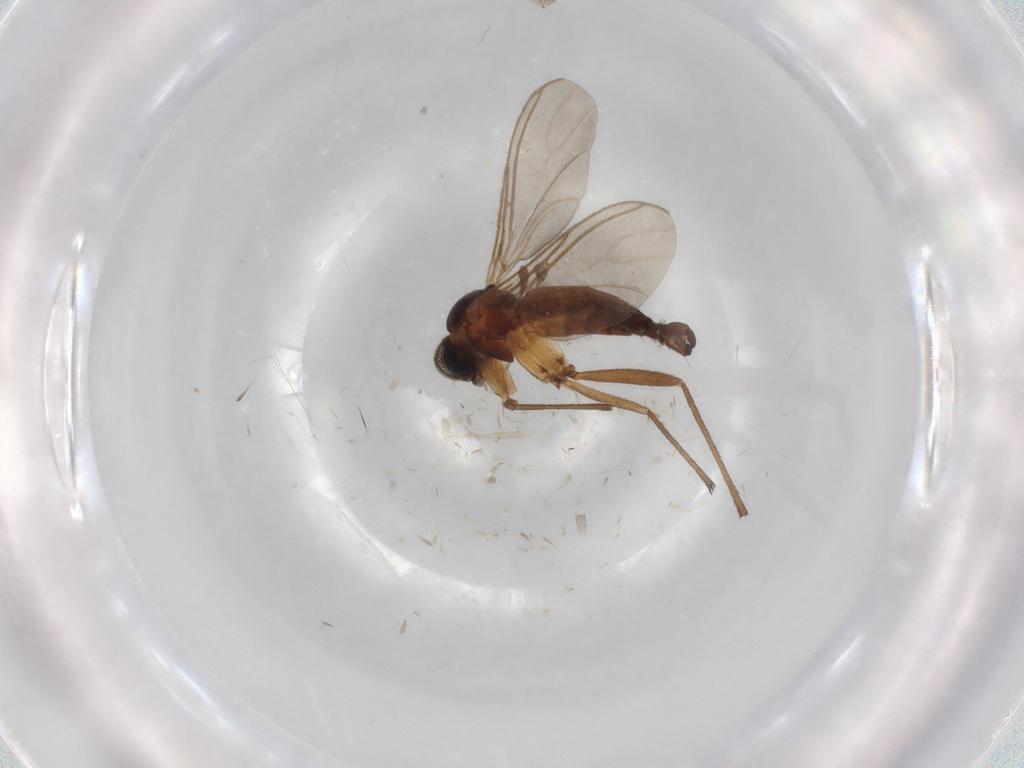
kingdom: Animalia
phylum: Arthropoda
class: Insecta
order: Diptera
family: Sciaridae
